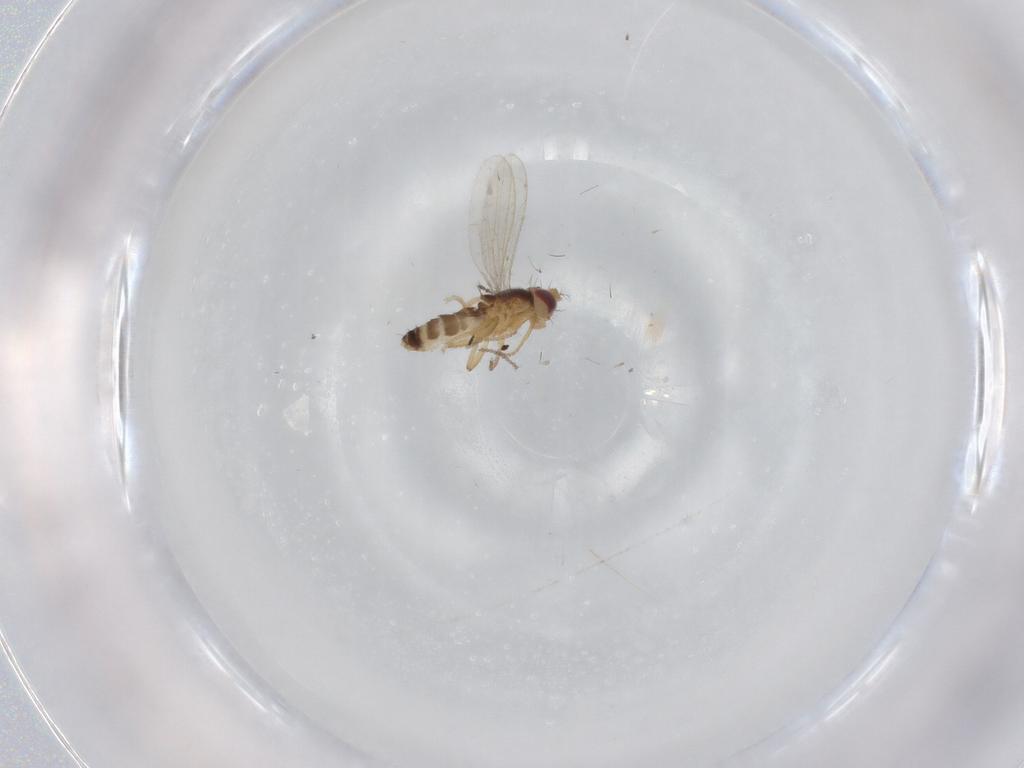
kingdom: Animalia
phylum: Arthropoda
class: Insecta
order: Diptera
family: Periscelididae
